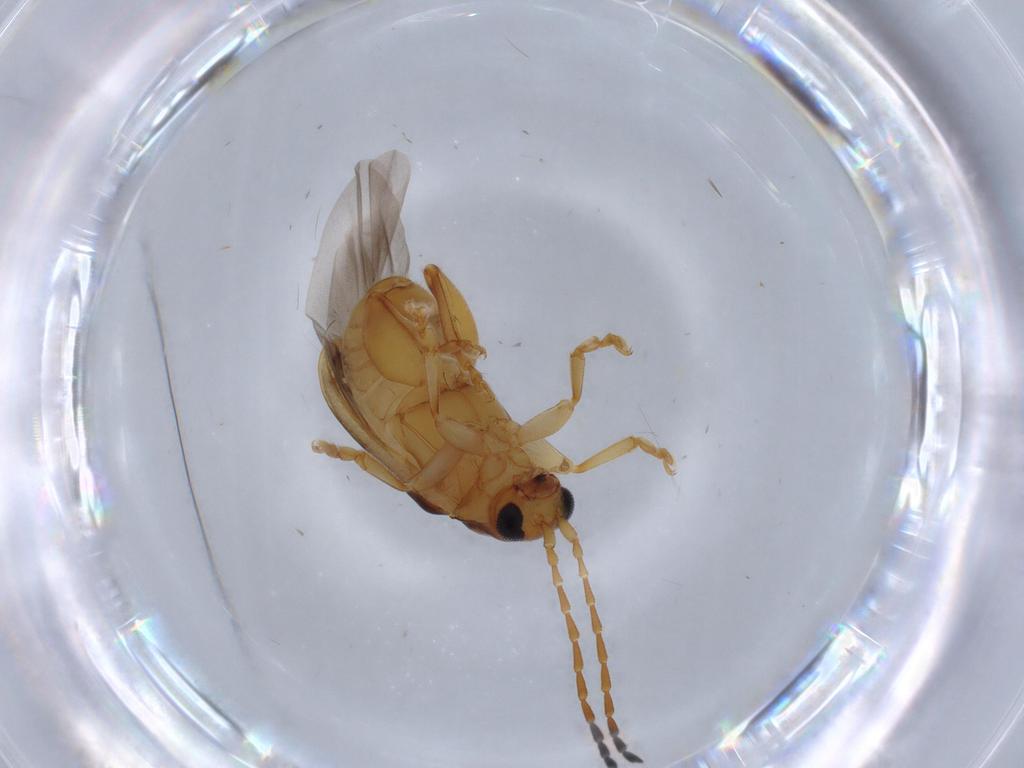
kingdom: Animalia
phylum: Arthropoda
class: Insecta
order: Coleoptera
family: Chrysomelidae
